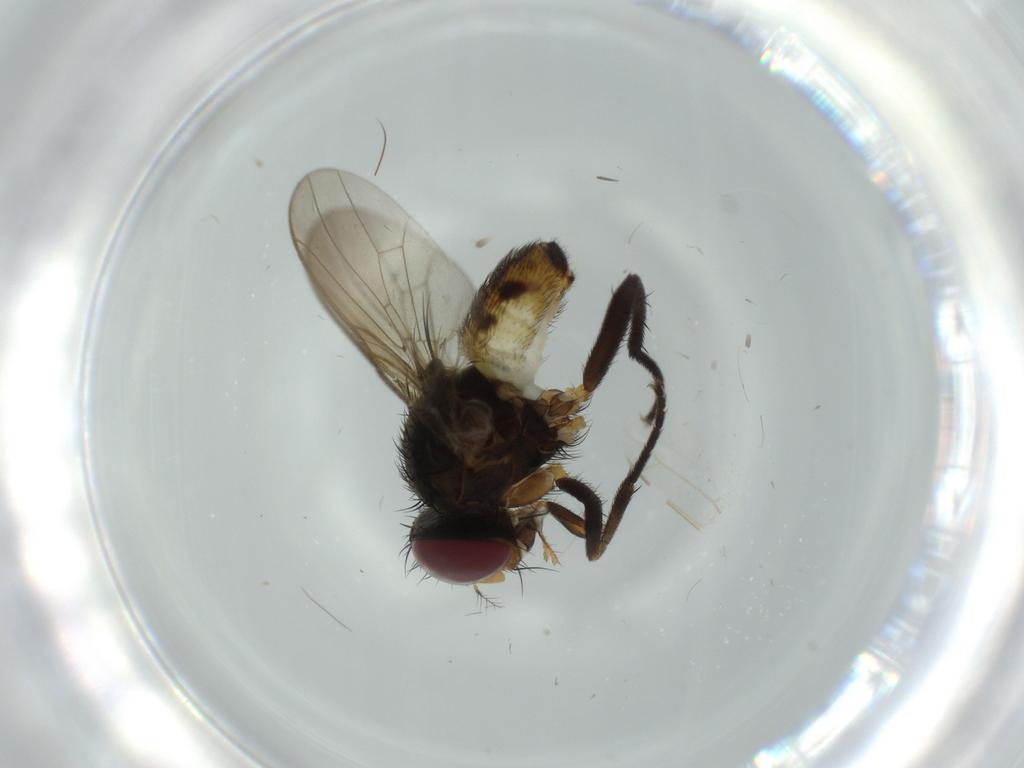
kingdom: Animalia
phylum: Arthropoda
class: Insecta
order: Diptera
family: Anthomyiidae
